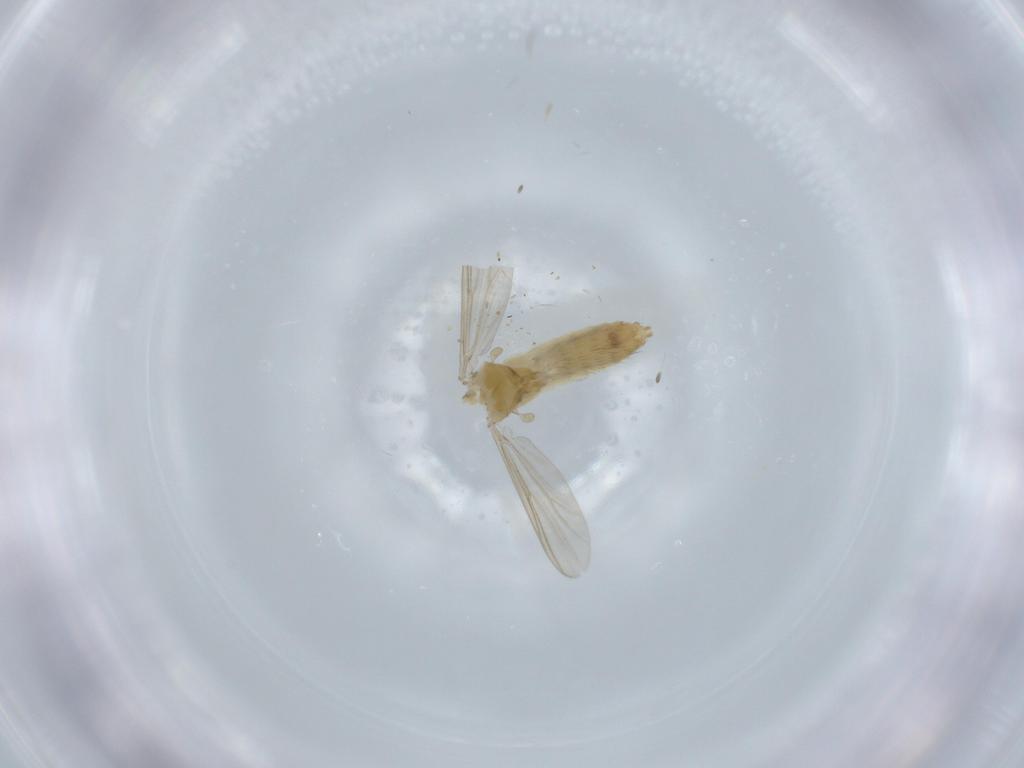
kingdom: Animalia
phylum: Arthropoda
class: Insecta
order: Diptera
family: Chironomidae
